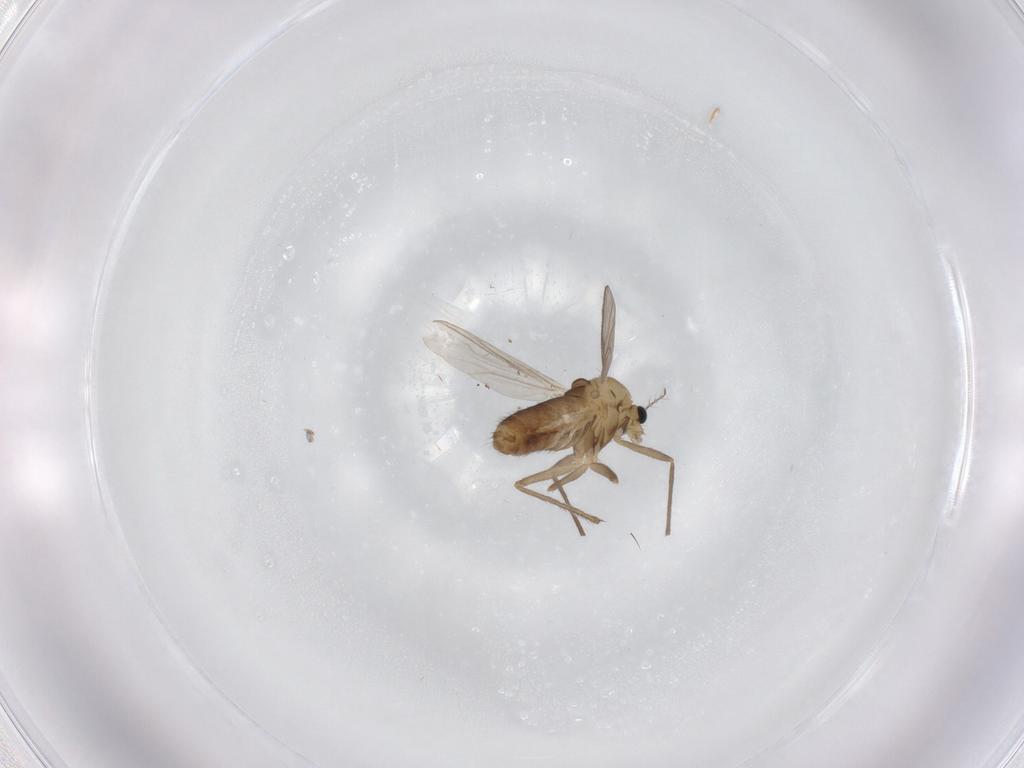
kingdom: Animalia
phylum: Arthropoda
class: Insecta
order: Diptera
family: Chironomidae
